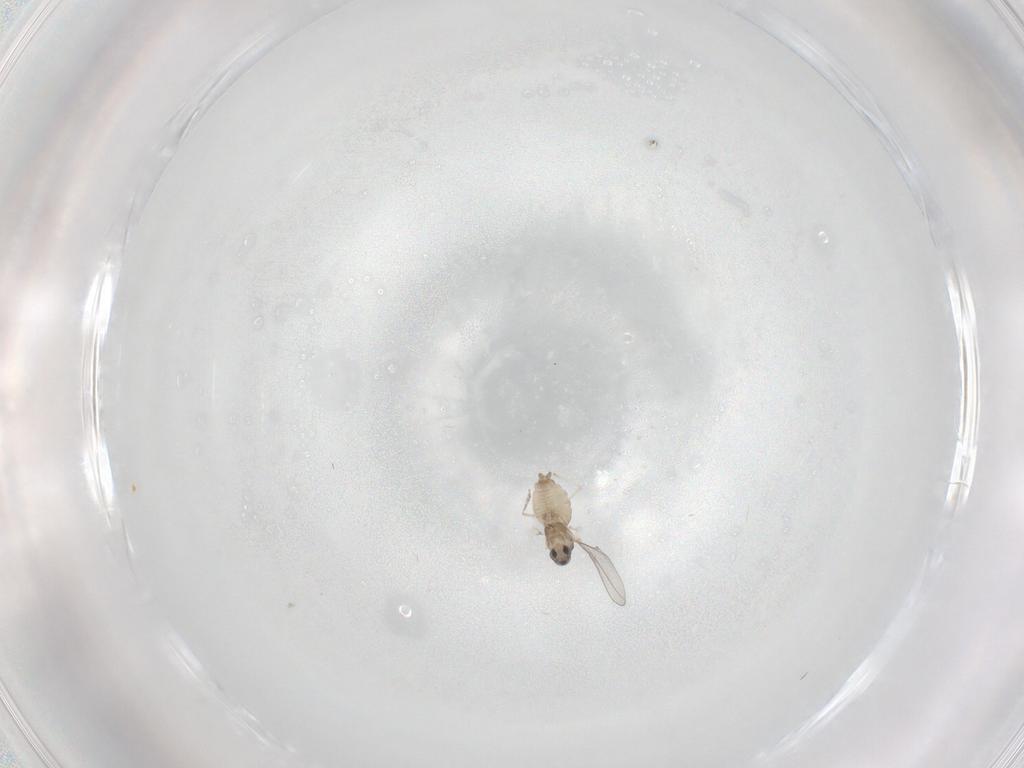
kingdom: Animalia
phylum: Arthropoda
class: Insecta
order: Diptera
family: Cecidomyiidae
